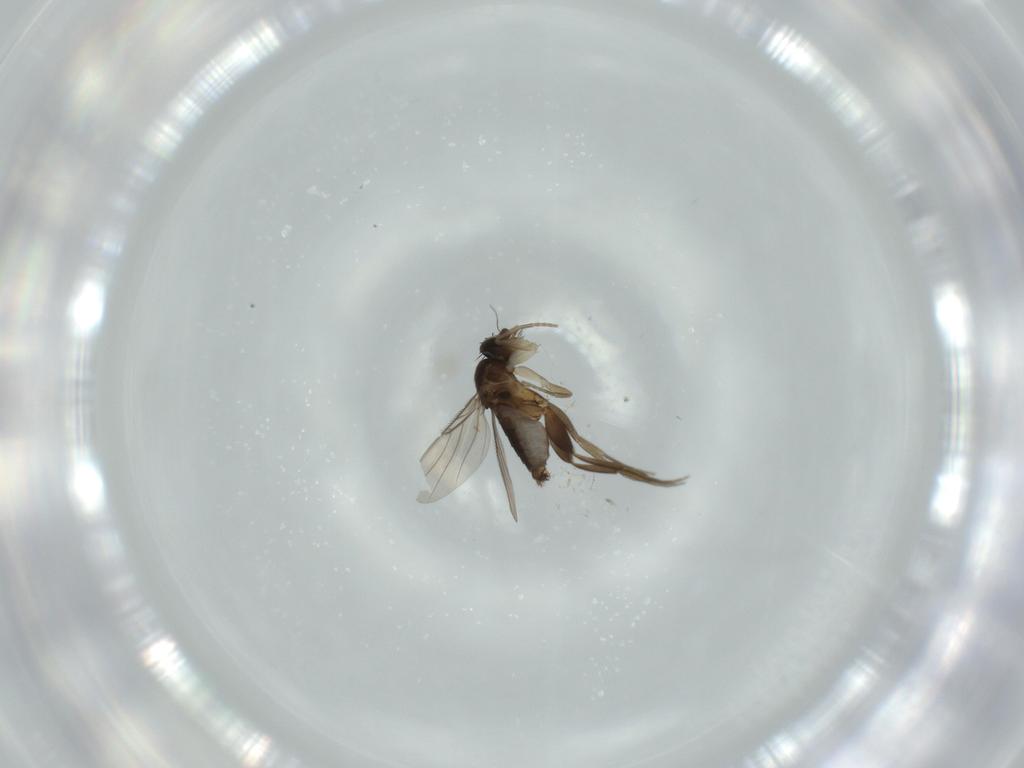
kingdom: Animalia
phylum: Arthropoda
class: Insecta
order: Diptera
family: Phoridae
